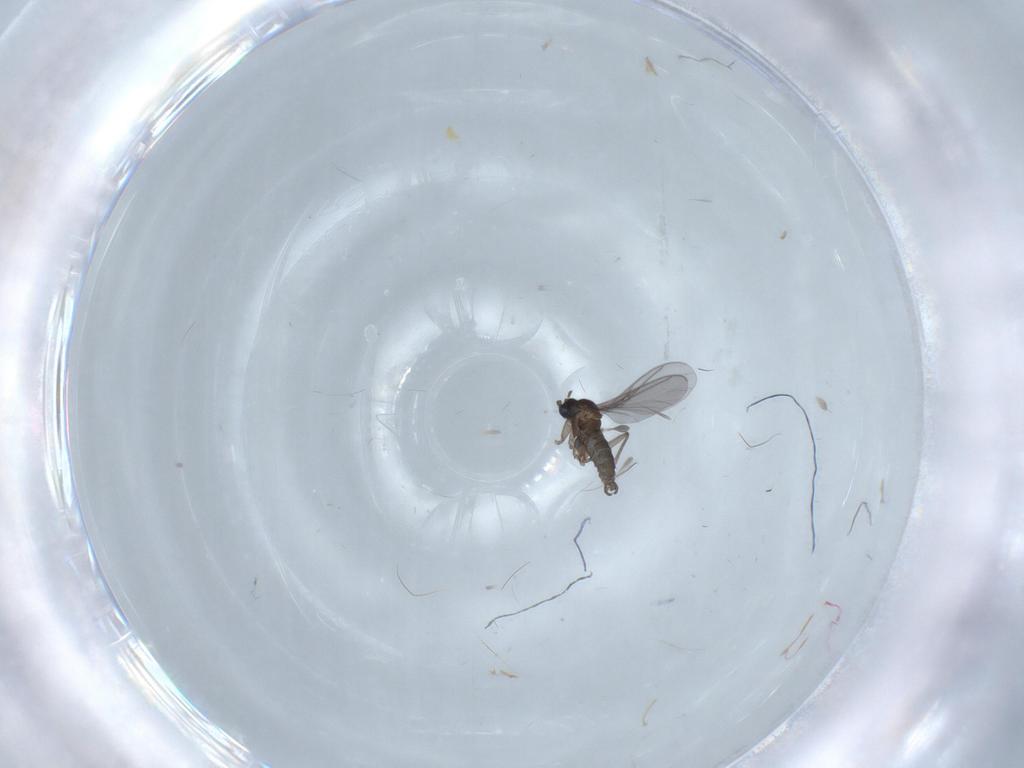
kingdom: Animalia
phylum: Arthropoda
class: Insecta
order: Diptera
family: Sciaridae
